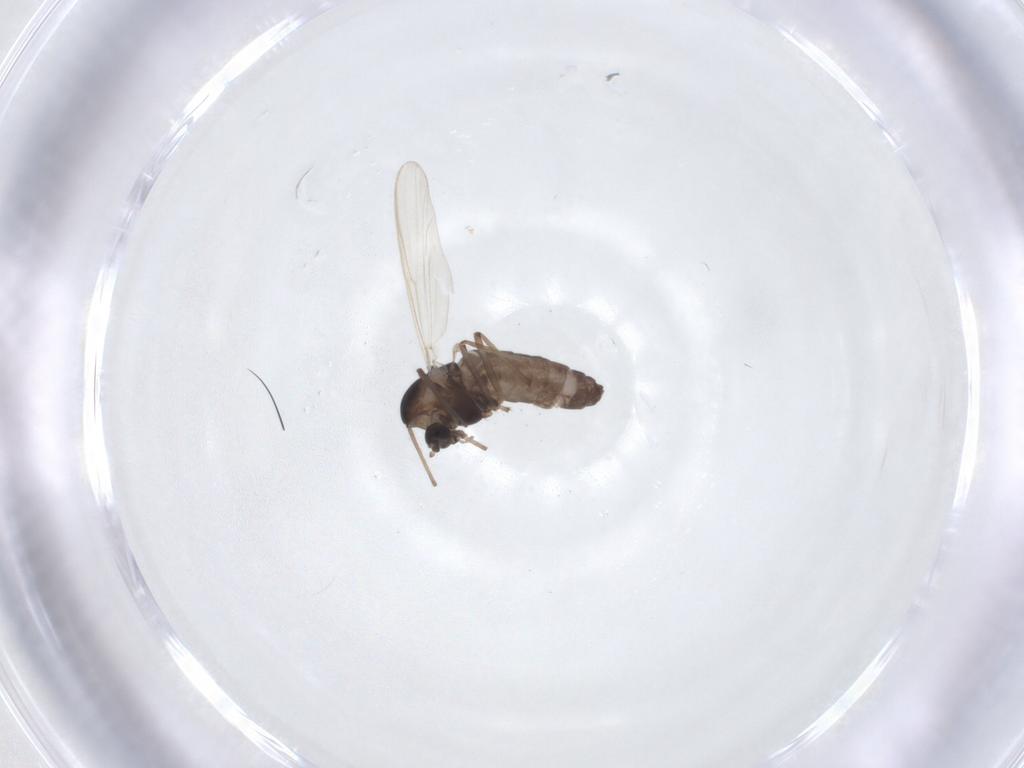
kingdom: Animalia
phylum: Arthropoda
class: Insecta
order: Diptera
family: Chironomidae
